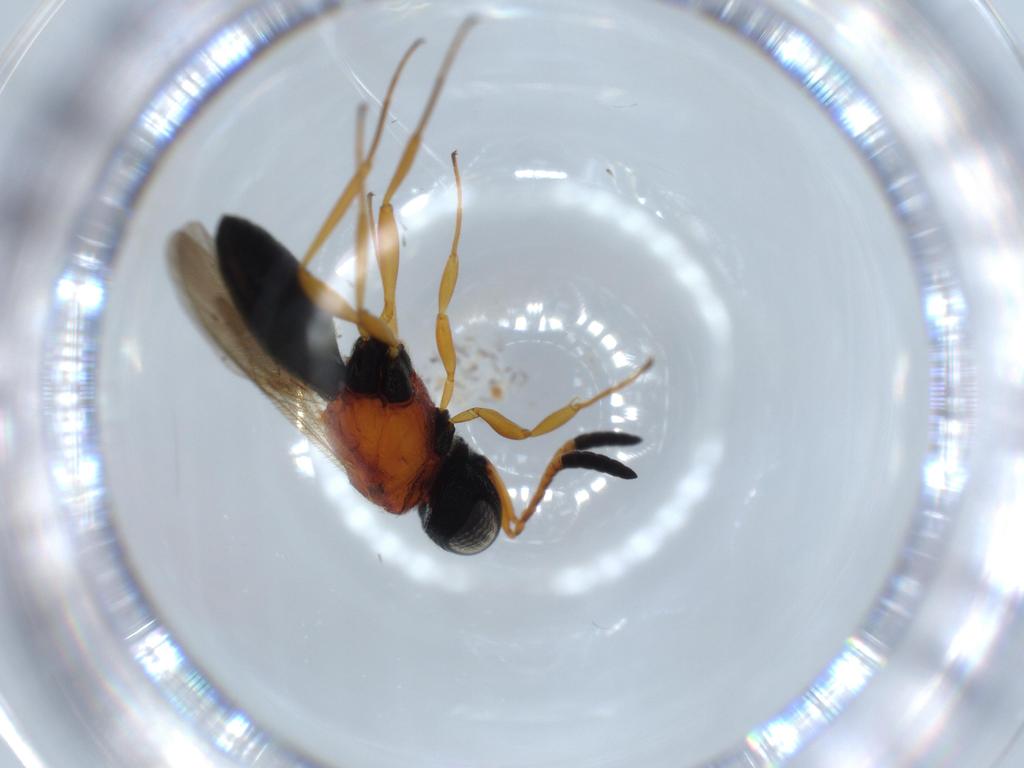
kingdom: Animalia
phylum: Arthropoda
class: Insecta
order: Hymenoptera
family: Scelionidae
